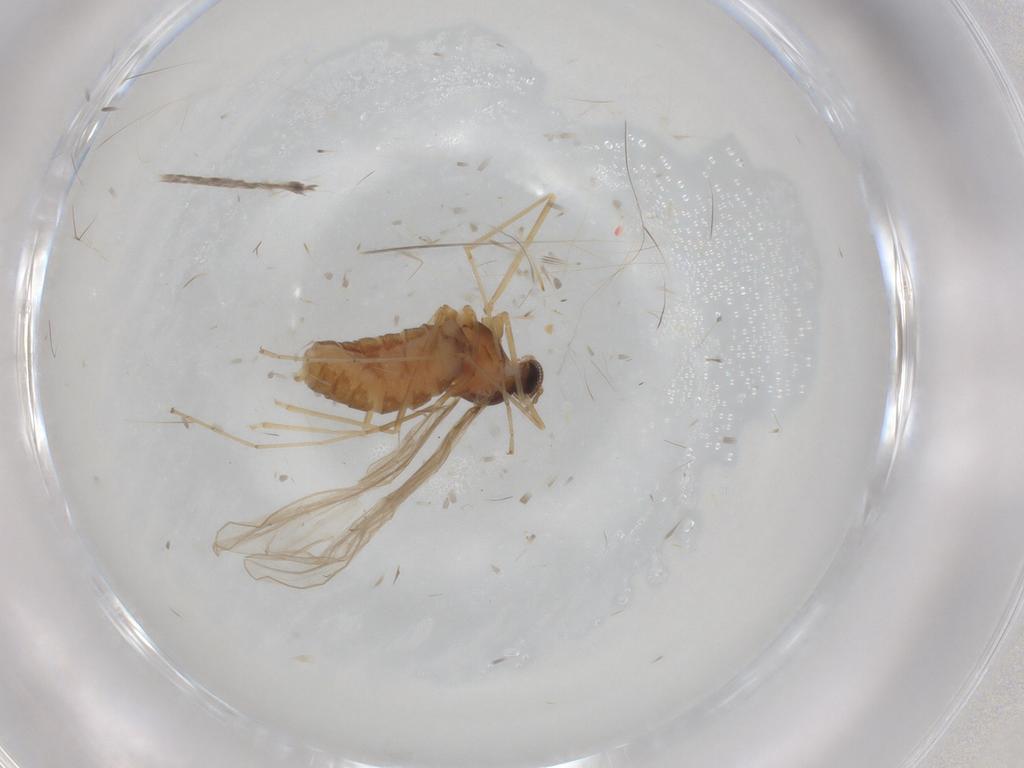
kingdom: Animalia
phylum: Arthropoda
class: Insecta
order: Diptera
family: Cecidomyiidae
